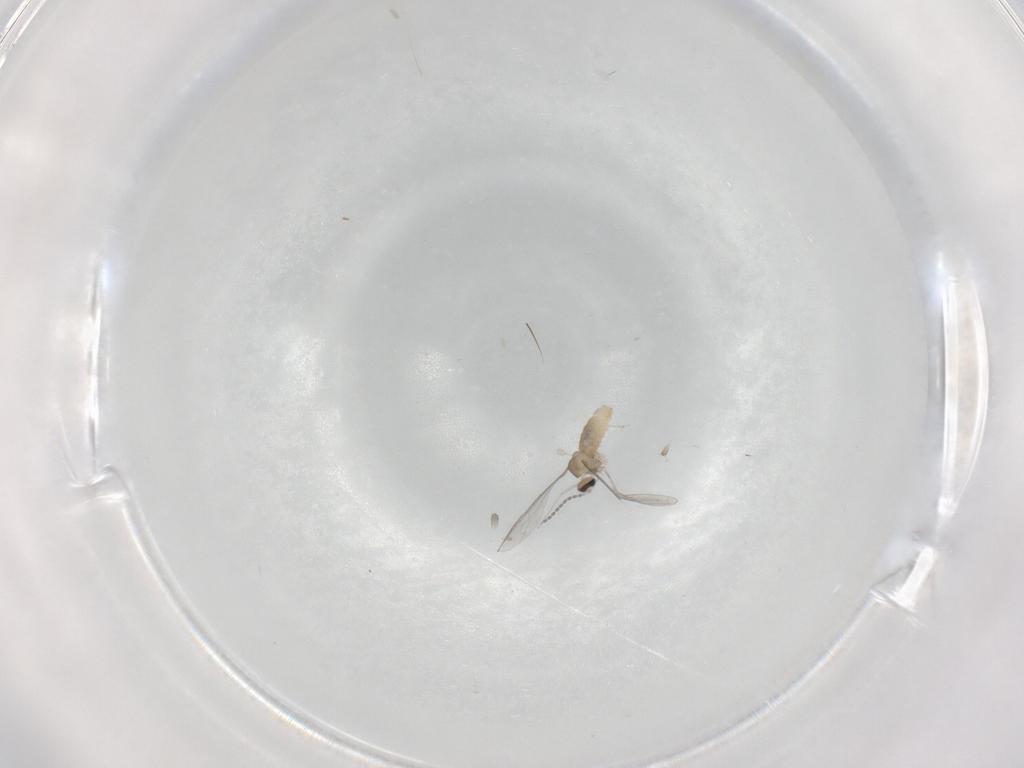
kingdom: Animalia
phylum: Arthropoda
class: Insecta
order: Diptera
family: Cecidomyiidae
